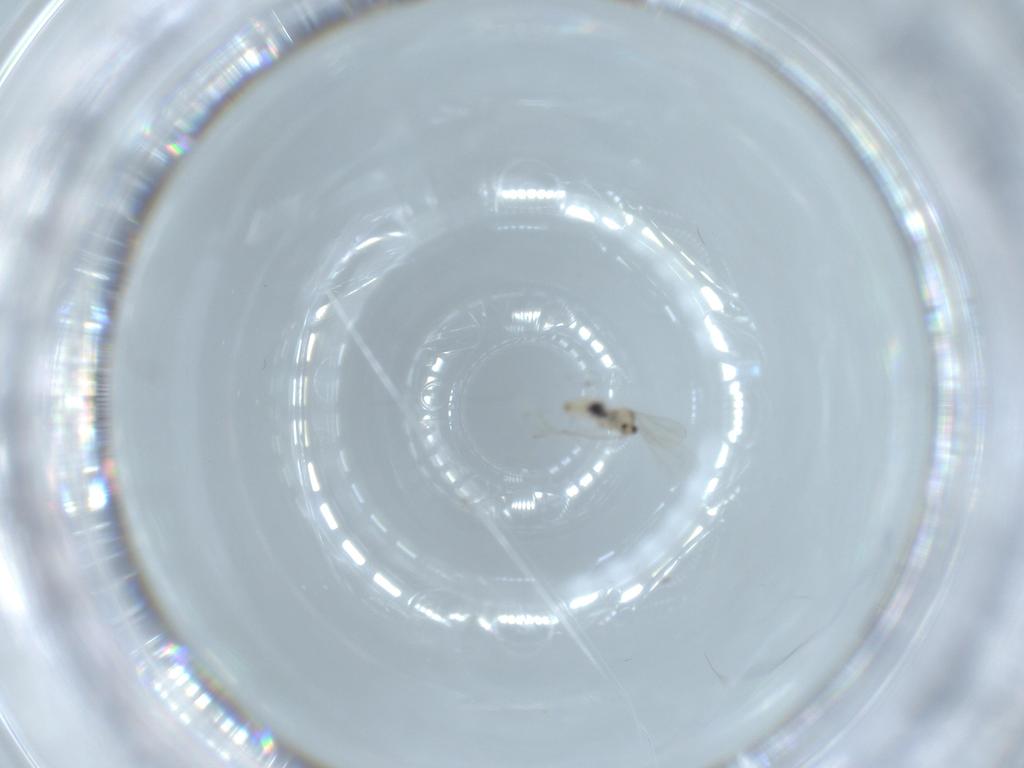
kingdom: Animalia
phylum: Arthropoda
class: Insecta
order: Diptera
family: Cecidomyiidae
